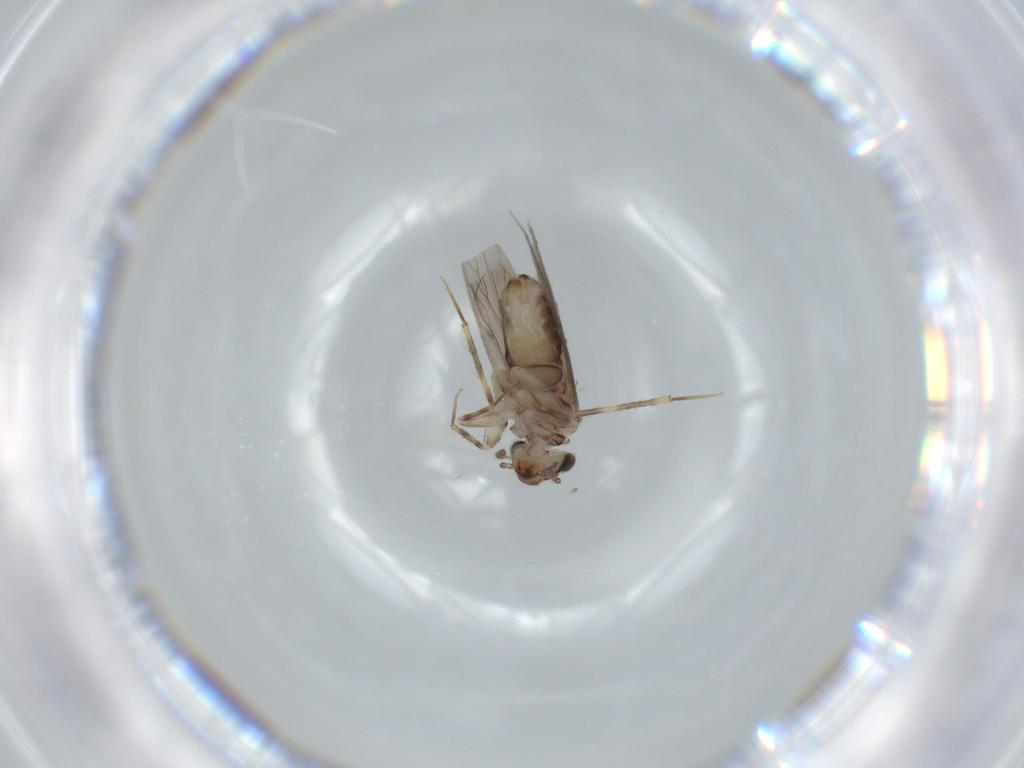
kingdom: Animalia
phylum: Arthropoda
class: Insecta
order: Psocodea
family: Lepidopsocidae
